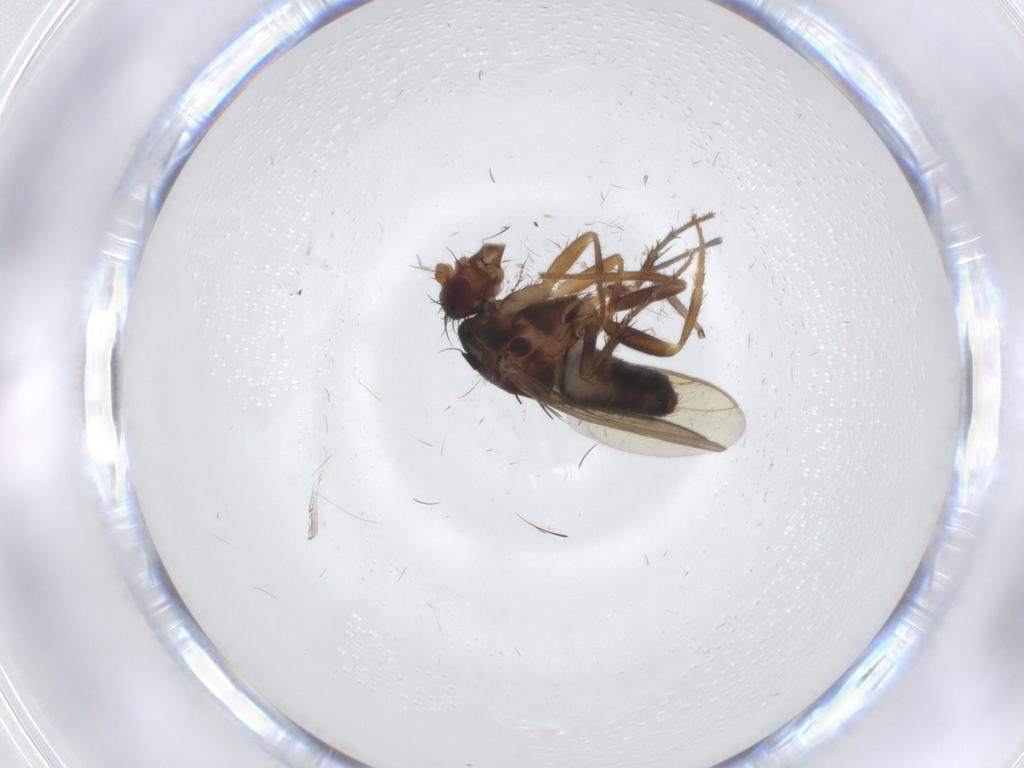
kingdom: Animalia
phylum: Arthropoda
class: Insecta
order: Diptera
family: Sphaeroceridae
